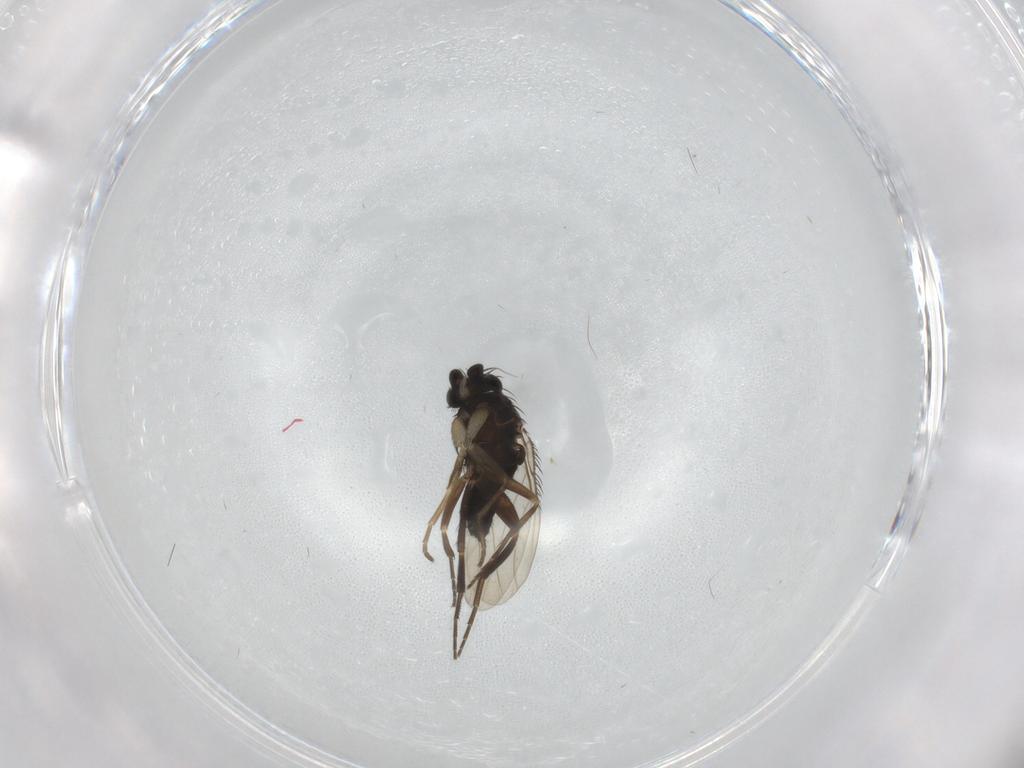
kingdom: Animalia
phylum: Arthropoda
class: Insecta
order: Diptera
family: Phoridae
